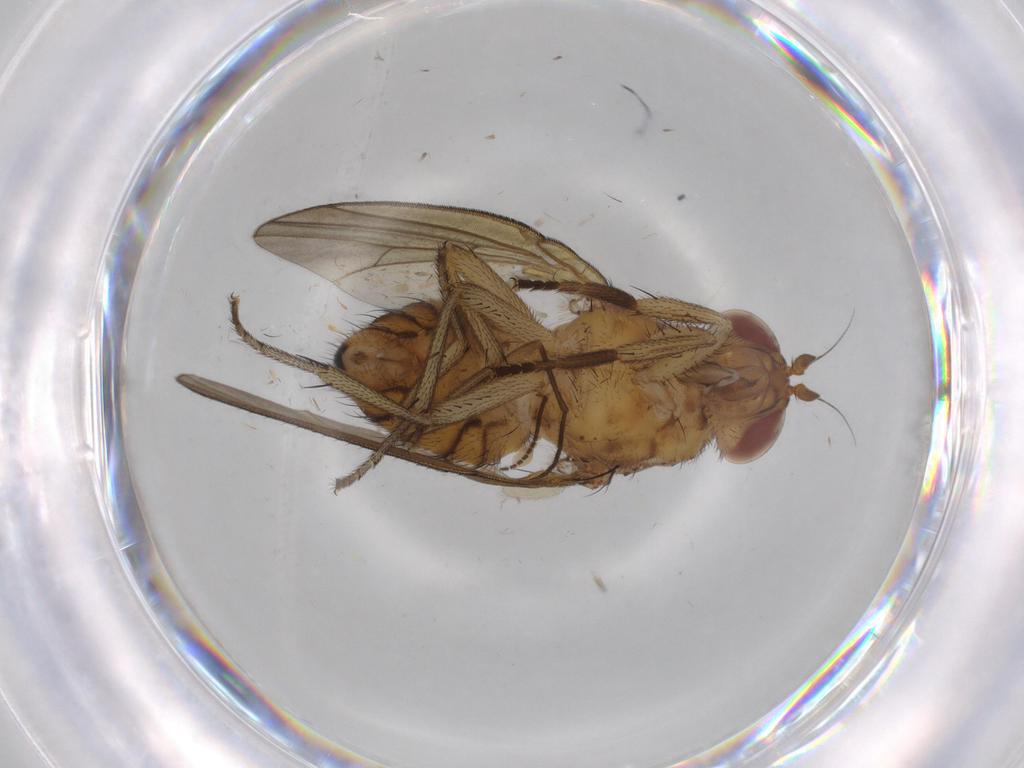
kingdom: Animalia
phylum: Arthropoda
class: Insecta
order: Diptera
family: Sciaridae
